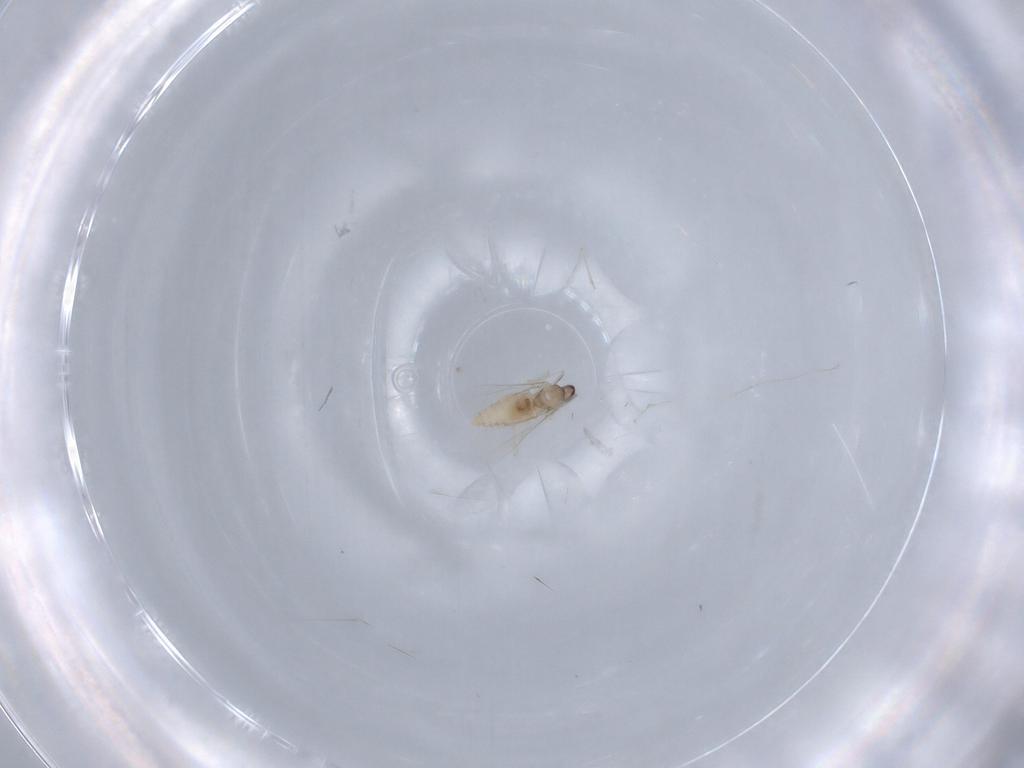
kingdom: Animalia
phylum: Arthropoda
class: Insecta
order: Diptera
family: Cecidomyiidae
